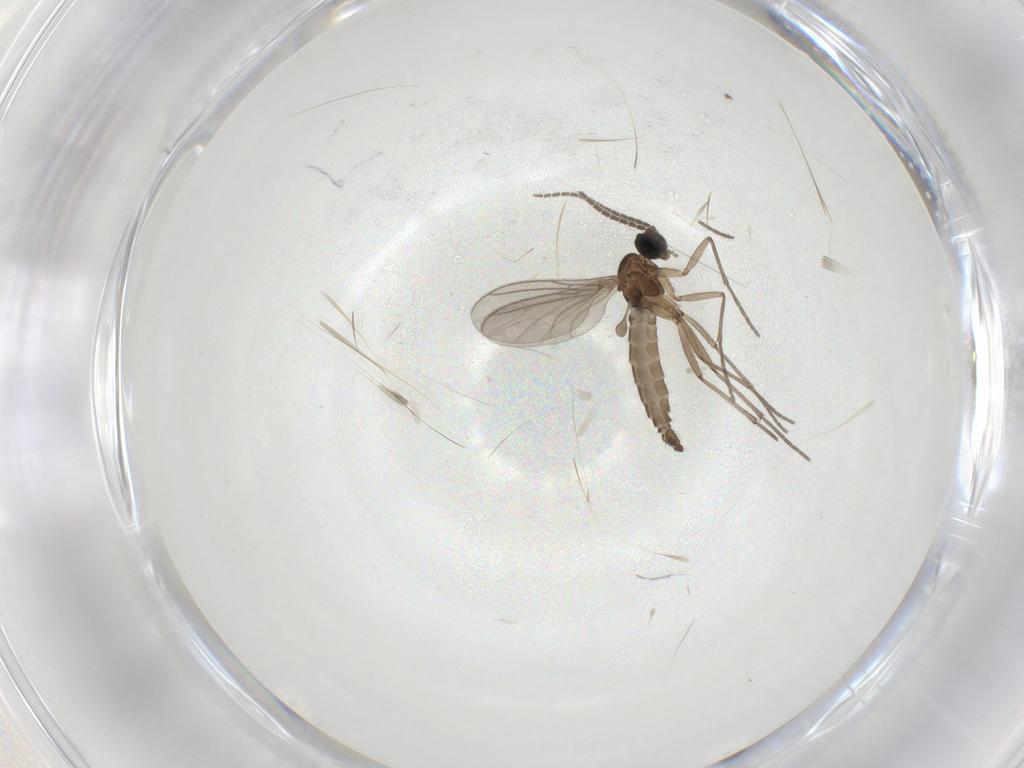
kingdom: Animalia
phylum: Arthropoda
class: Insecta
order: Diptera
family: Sciaridae
